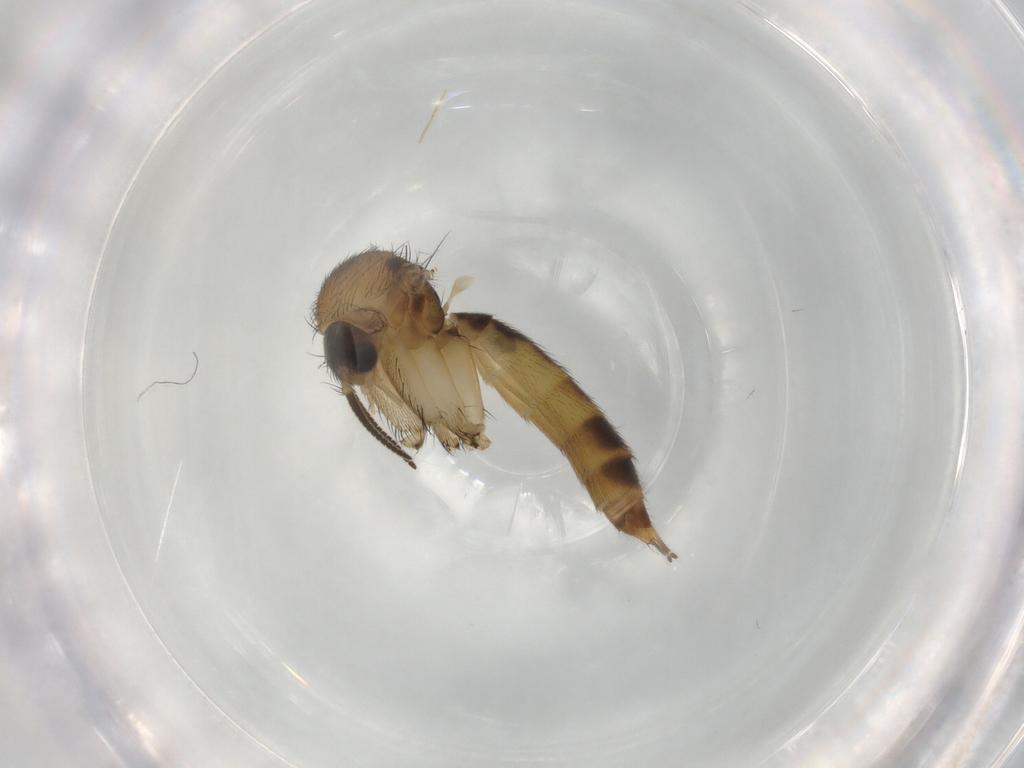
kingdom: Animalia
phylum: Arthropoda
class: Insecta
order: Diptera
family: Mycetophilidae
